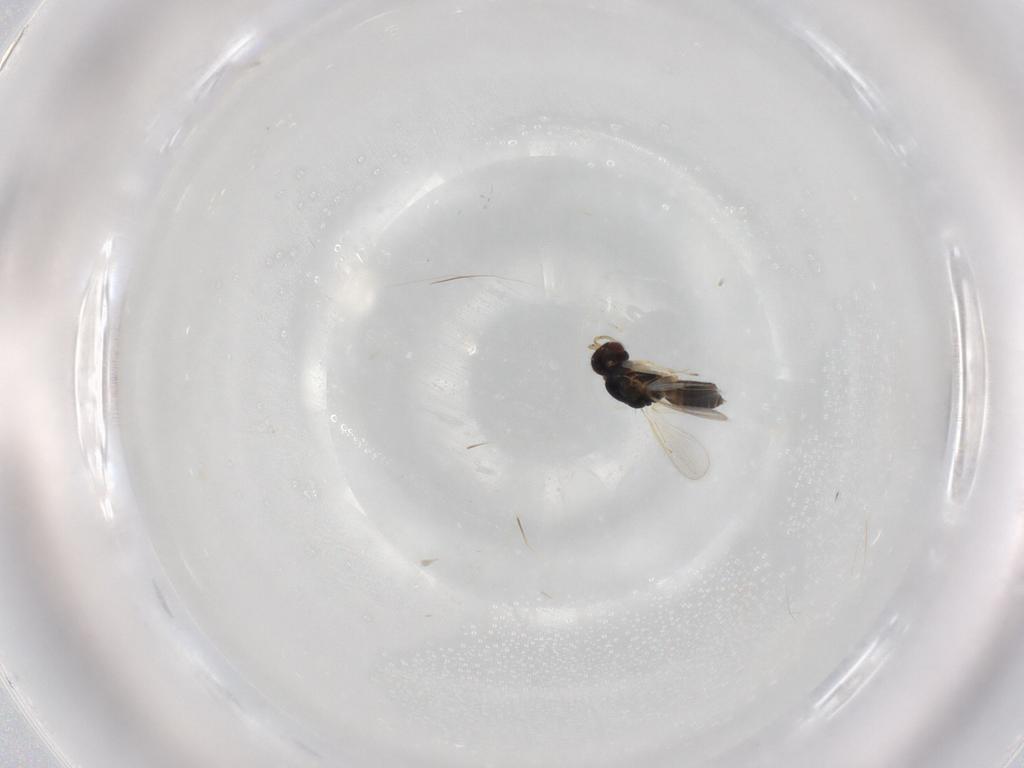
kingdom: Animalia
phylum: Arthropoda
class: Insecta
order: Hymenoptera
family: Eulophidae
